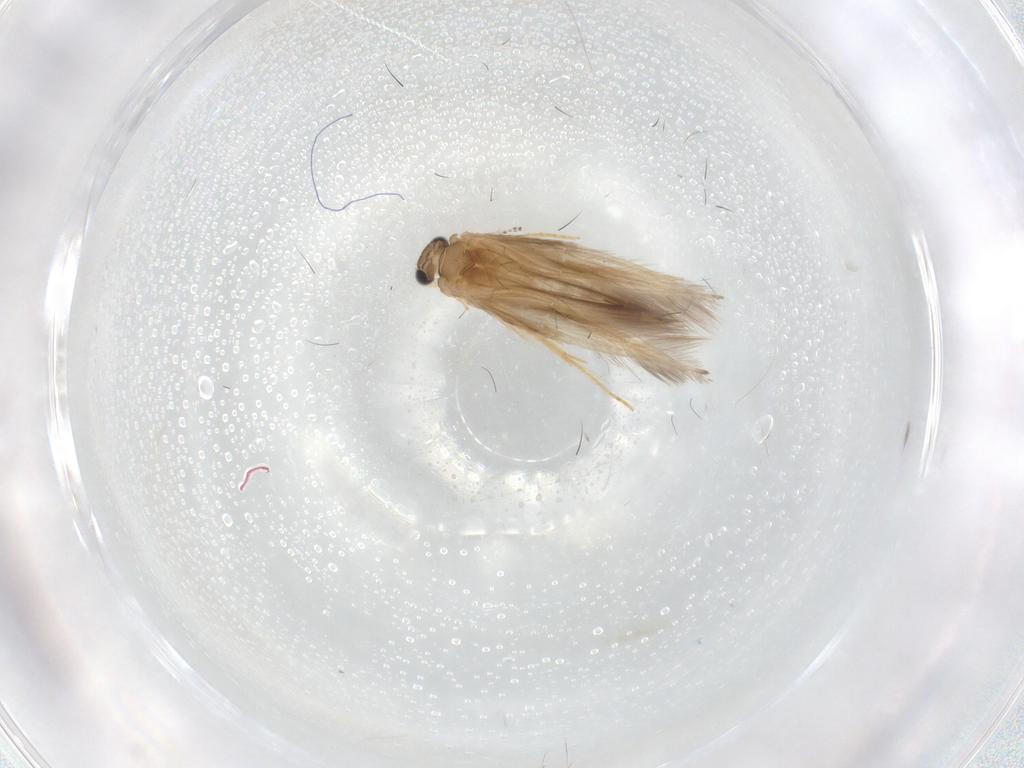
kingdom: Animalia
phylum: Arthropoda
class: Insecta
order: Trichoptera
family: Hydroptilidae
